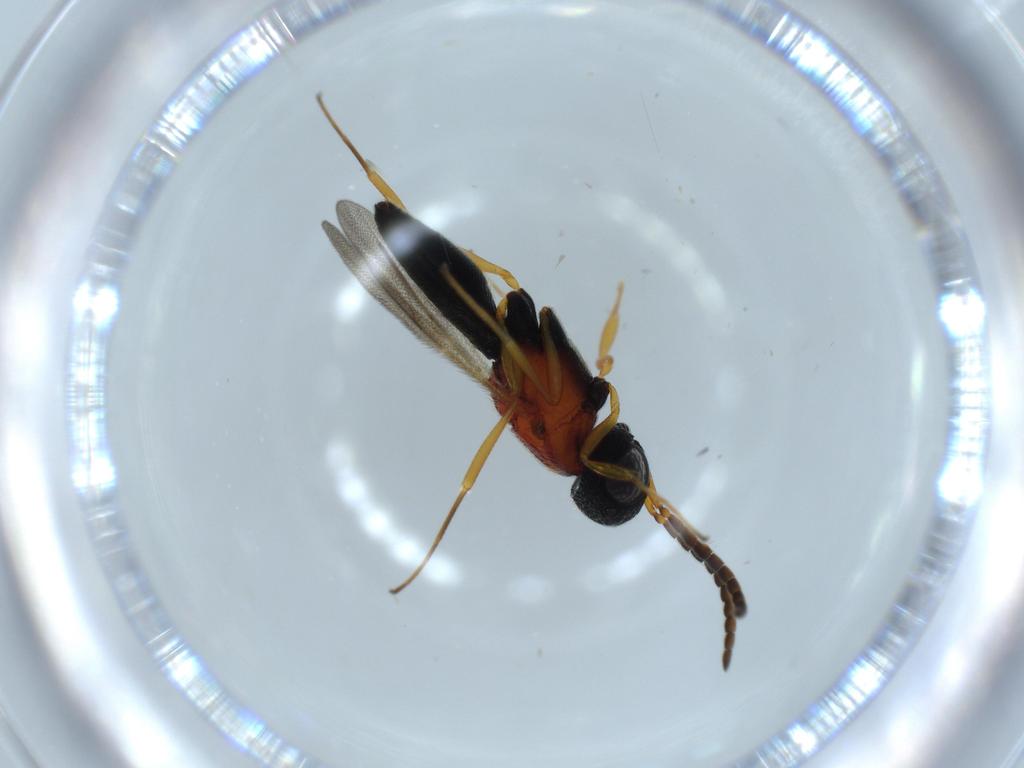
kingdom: Animalia
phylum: Arthropoda
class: Insecta
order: Hymenoptera
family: Scelionidae
